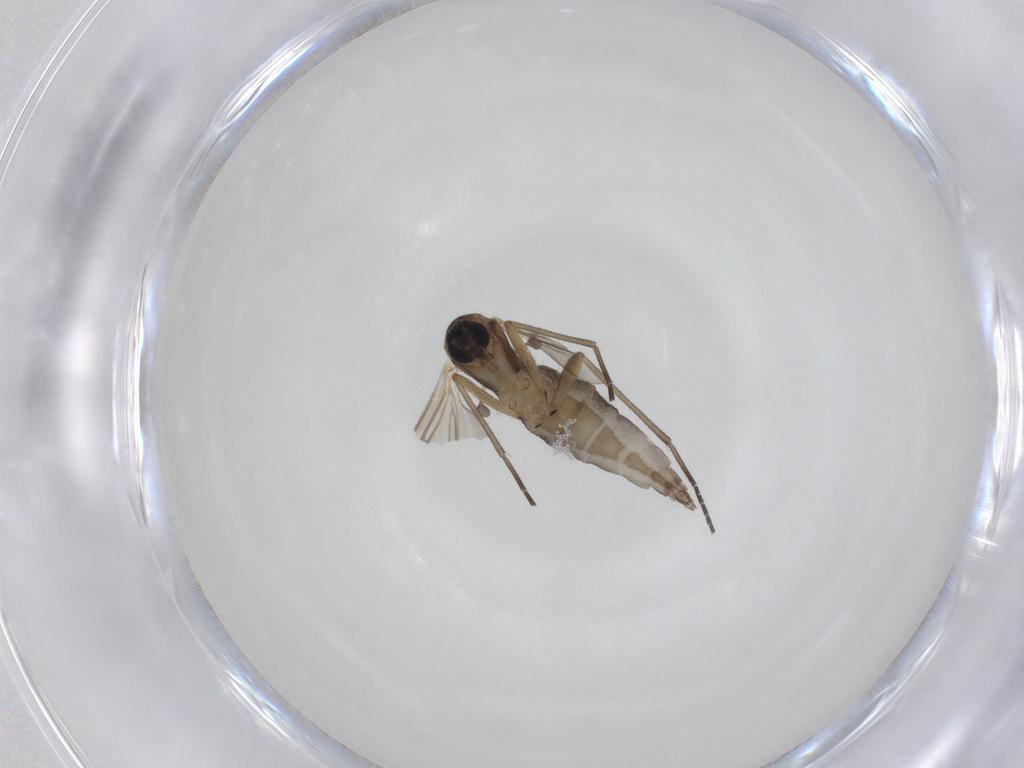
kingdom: Animalia
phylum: Arthropoda
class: Insecta
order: Diptera
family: Sciaridae
